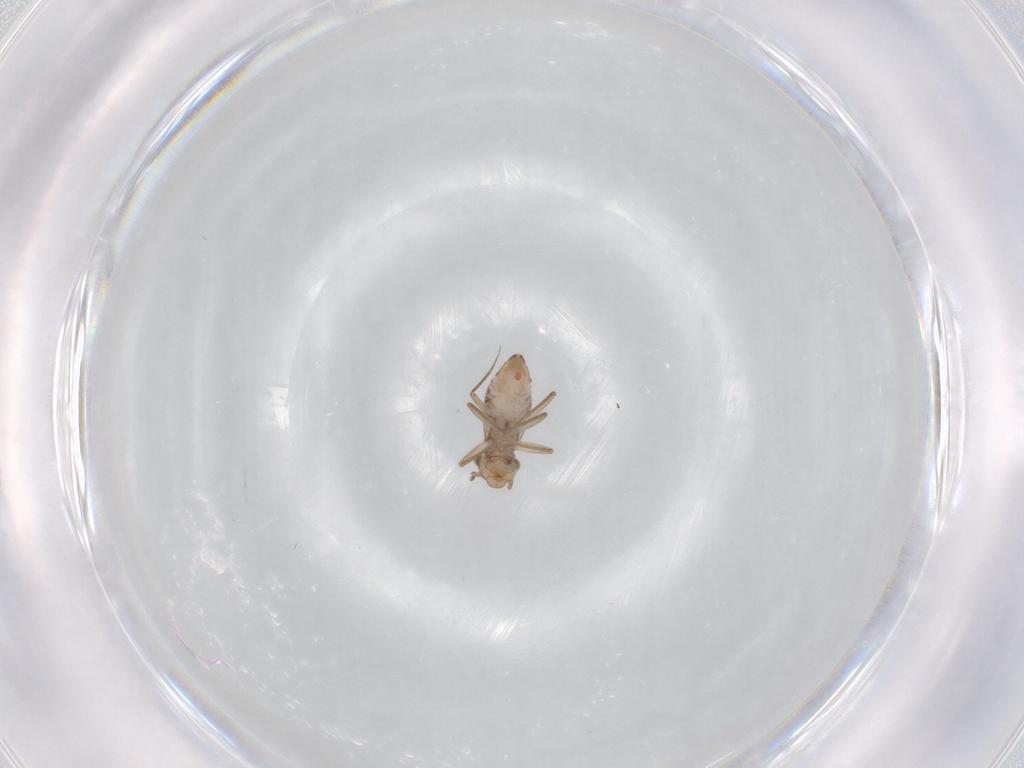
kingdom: Animalia
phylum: Arthropoda
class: Insecta
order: Psocodea
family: Lepidopsocidae
